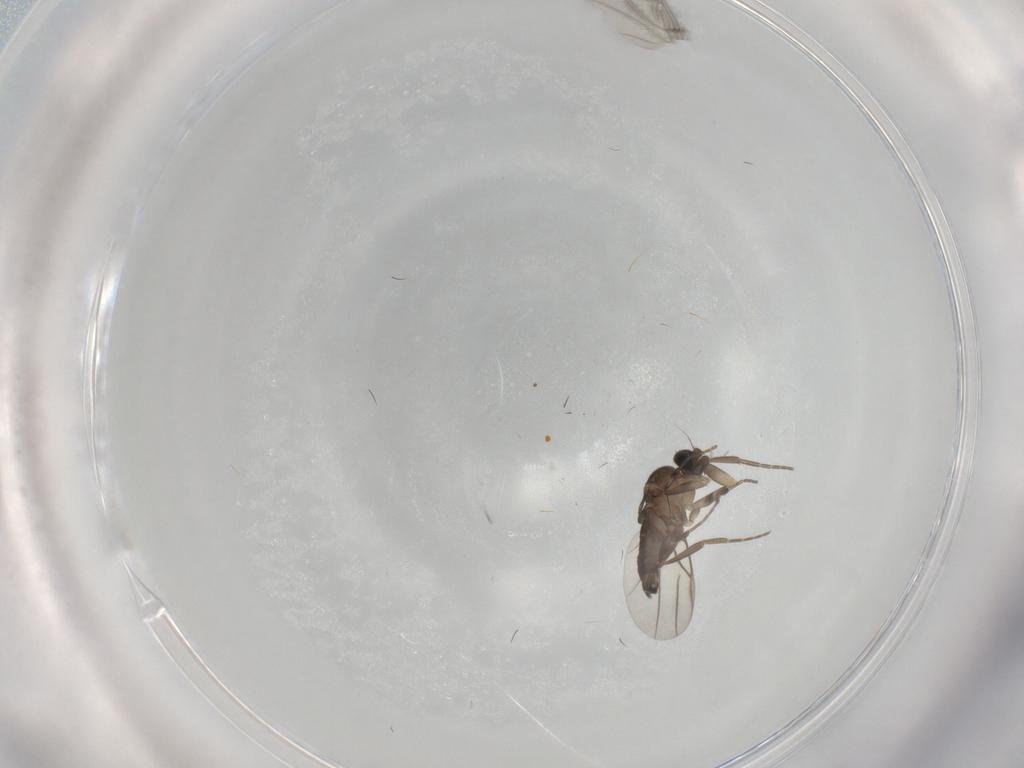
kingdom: Animalia
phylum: Arthropoda
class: Insecta
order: Diptera
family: Phoridae
